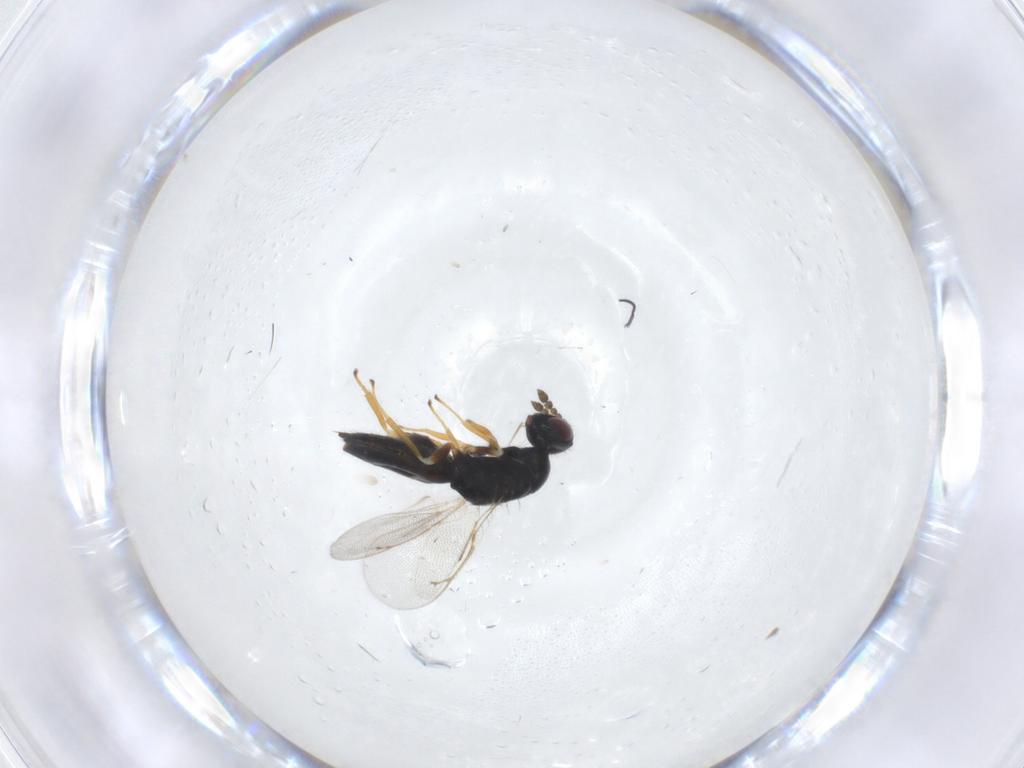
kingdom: Animalia
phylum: Arthropoda
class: Insecta
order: Hymenoptera
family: Eulophidae
